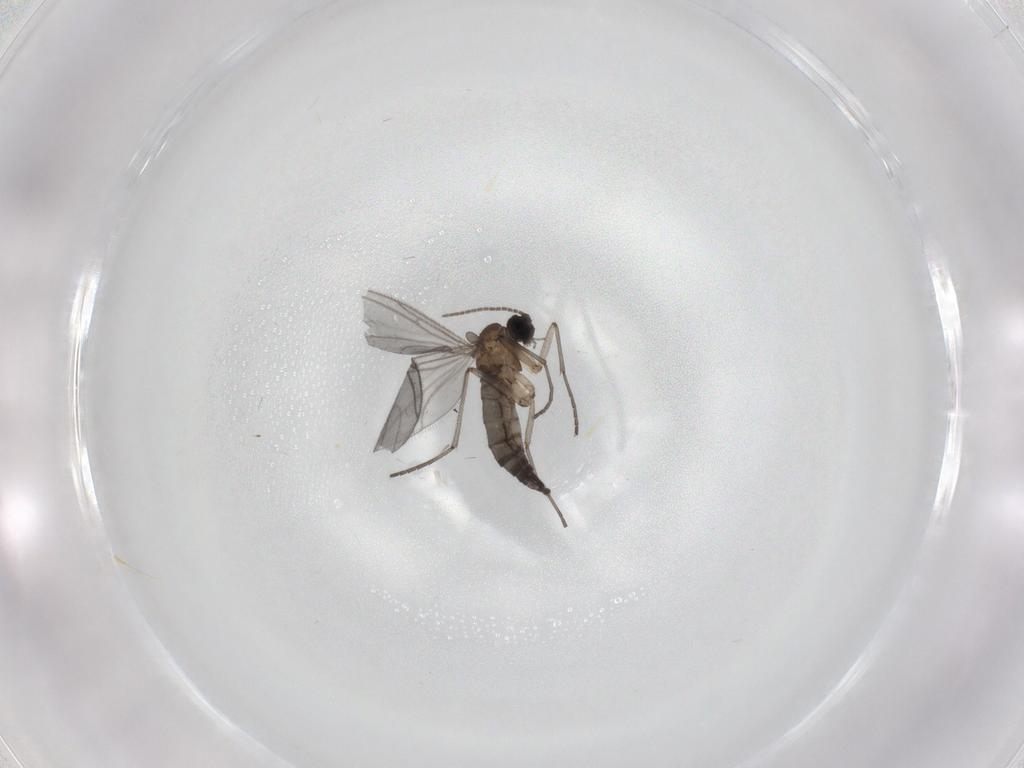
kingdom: Animalia
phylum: Arthropoda
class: Insecta
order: Diptera
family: Sciaridae
